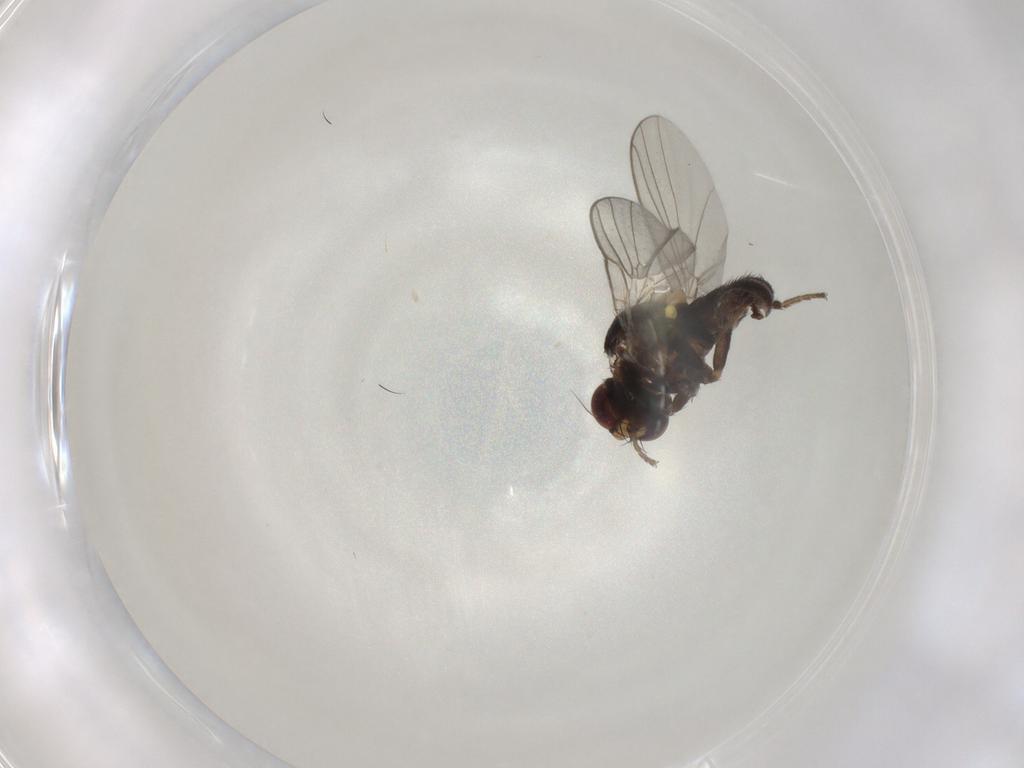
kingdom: Animalia
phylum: Arthropoda
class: Insecta
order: Diptera
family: Agromyzidae
